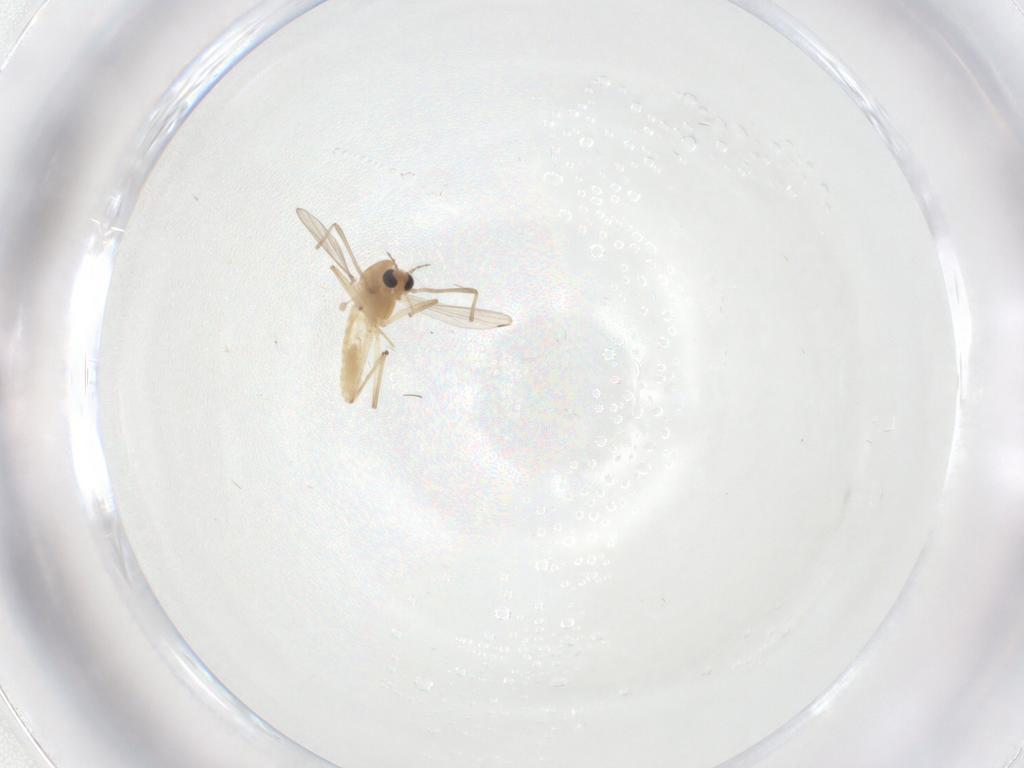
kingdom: Animalia
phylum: Arthropoda
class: Insecta
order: Diptera
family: Chironomidae
